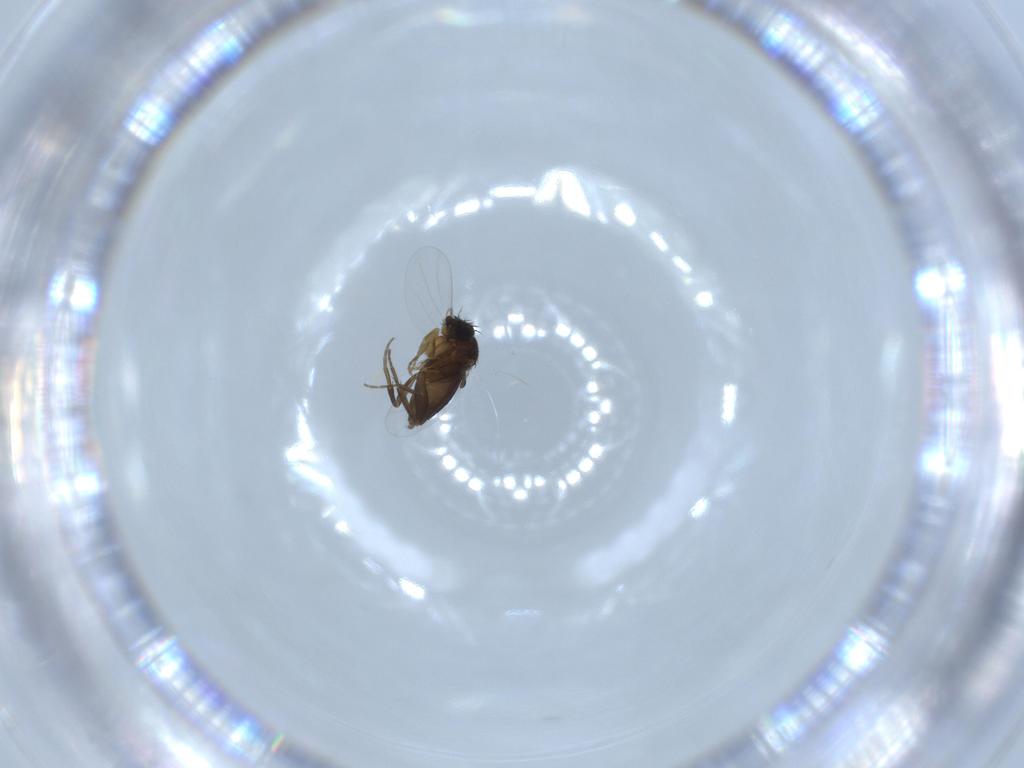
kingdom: Animalia
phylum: Arthropoda
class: Insecta
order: Diptera
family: Phoridae
